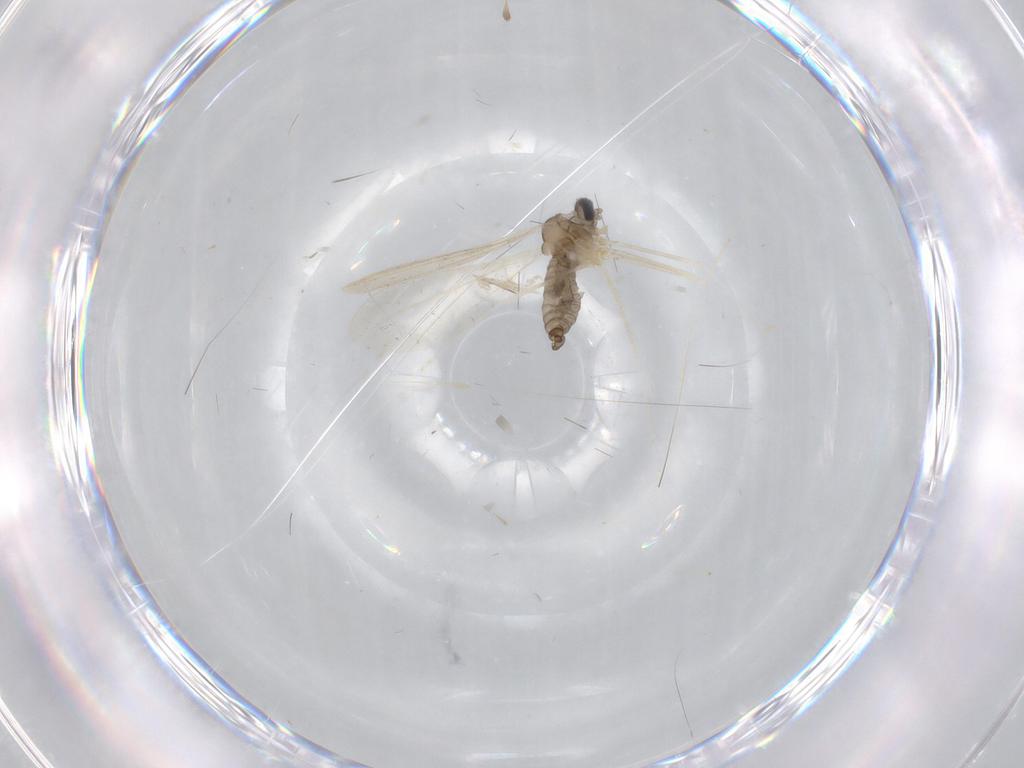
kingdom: Animalia
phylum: Arthropoda
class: Insecta
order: Diptera
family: Cecidomyiidae
